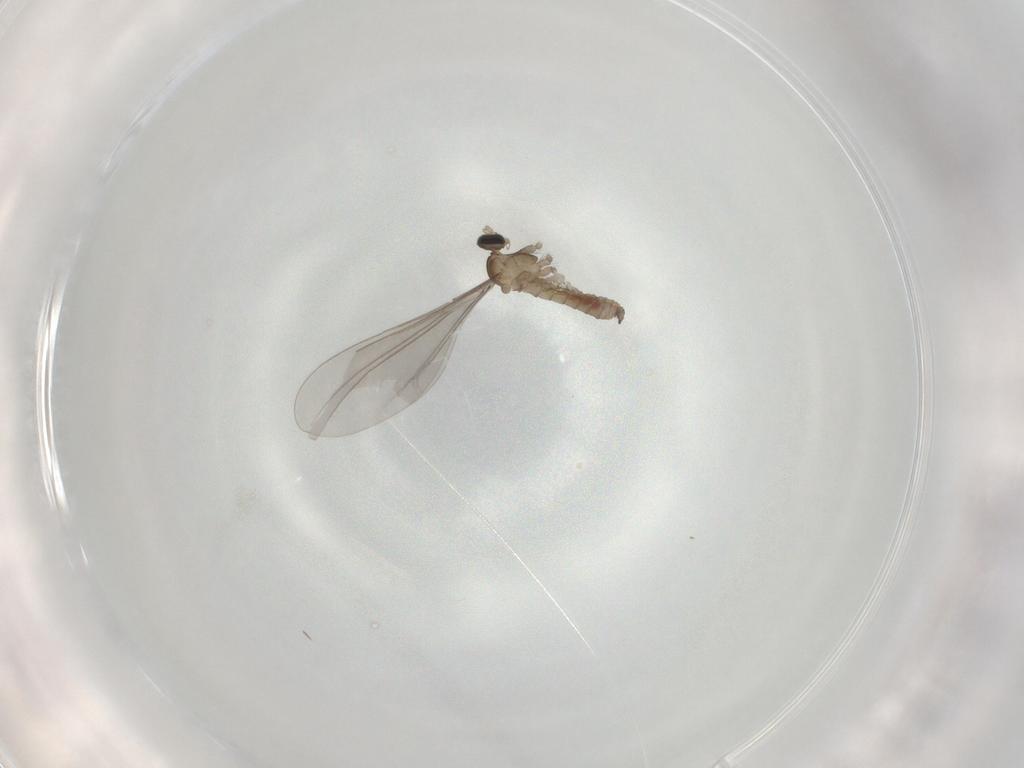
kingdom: Animalia
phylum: Arthropoda
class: Insecta
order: Diptera
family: Cecidomyiidae
